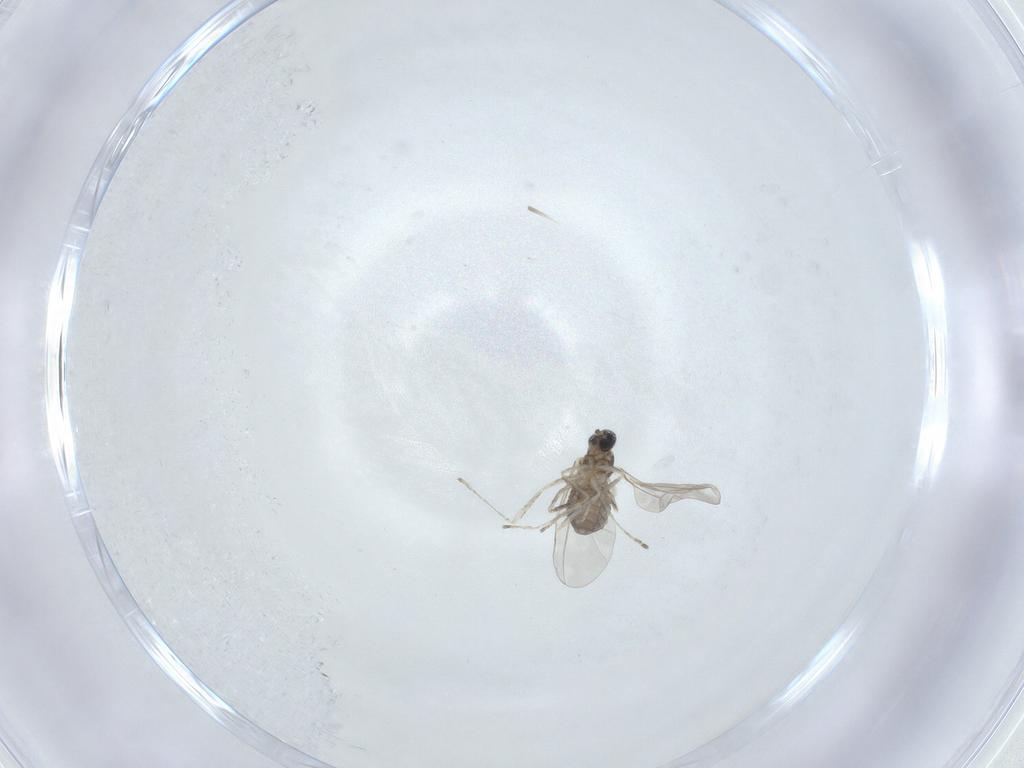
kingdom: Animalia
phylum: Arthropoda
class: Insecta
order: Diptera
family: Cecidomyiidae
